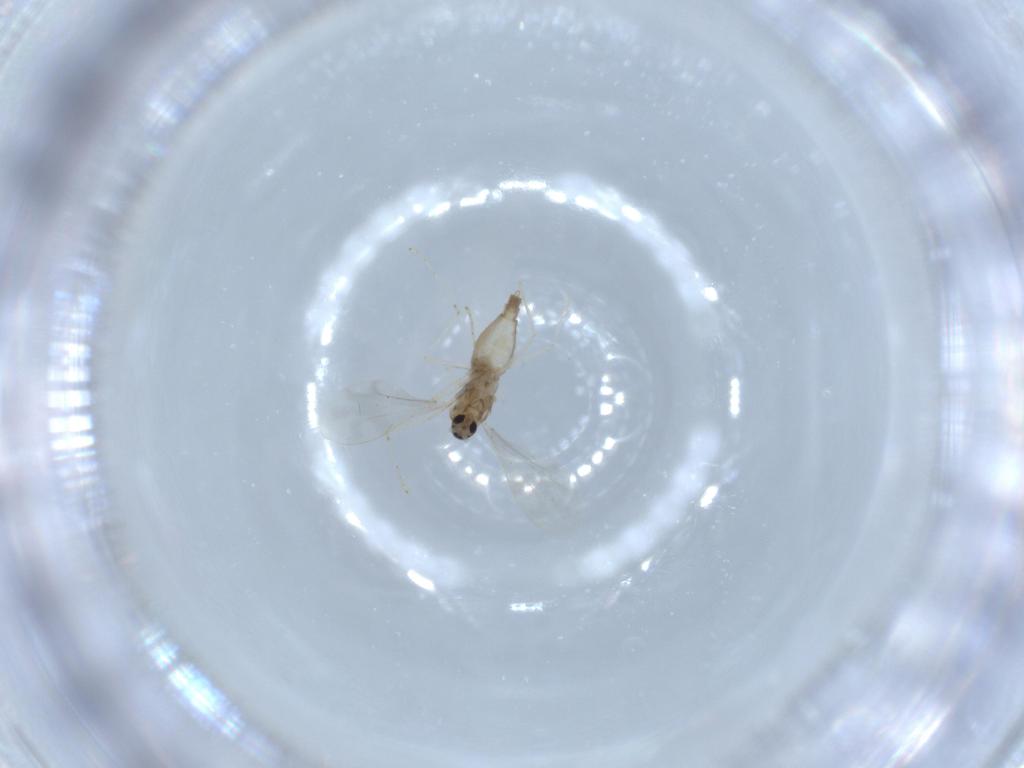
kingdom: Animalia
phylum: Arthropoda
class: Insecta
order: Diptera
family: Cecidomyiidae
